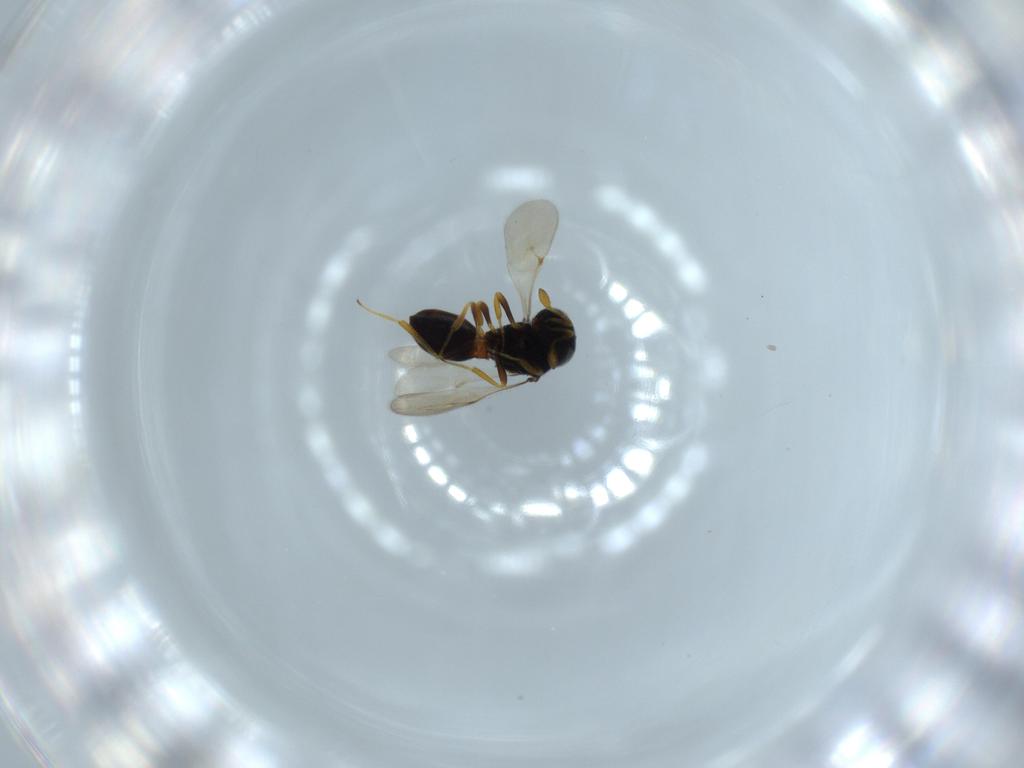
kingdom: Animalia
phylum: Arthropoda
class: Insecta
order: Hymenoptera
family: Scelionidae
